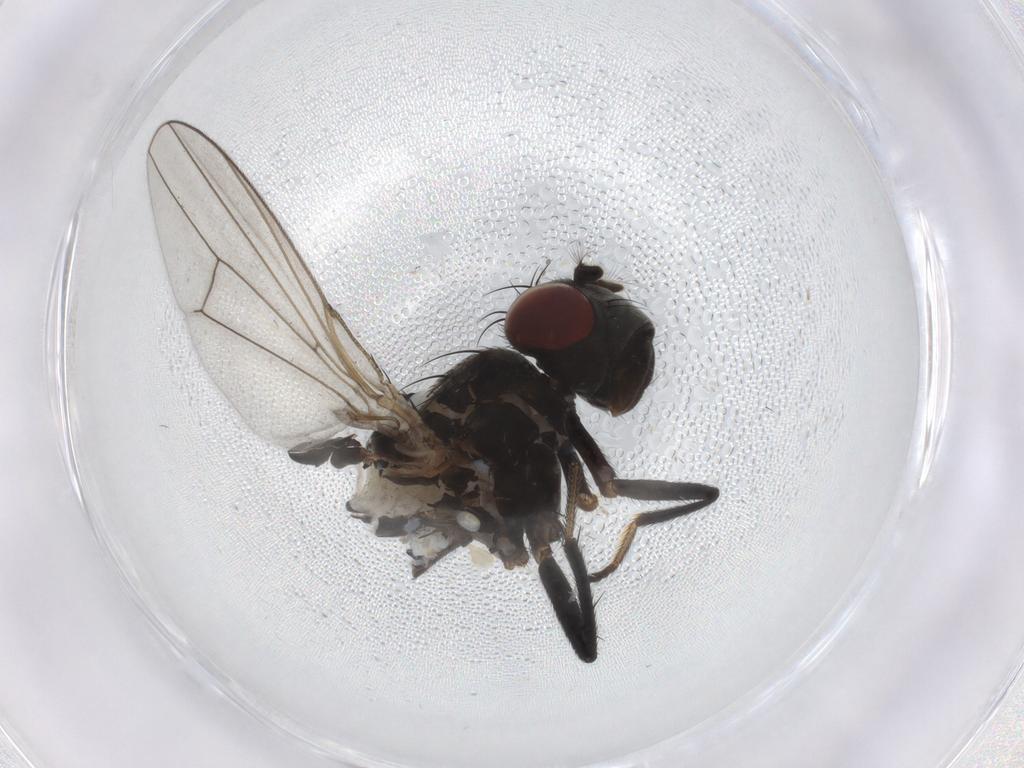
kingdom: Animalia
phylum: Arthropoda
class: Insecta
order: Diptera
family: Ephydridae
